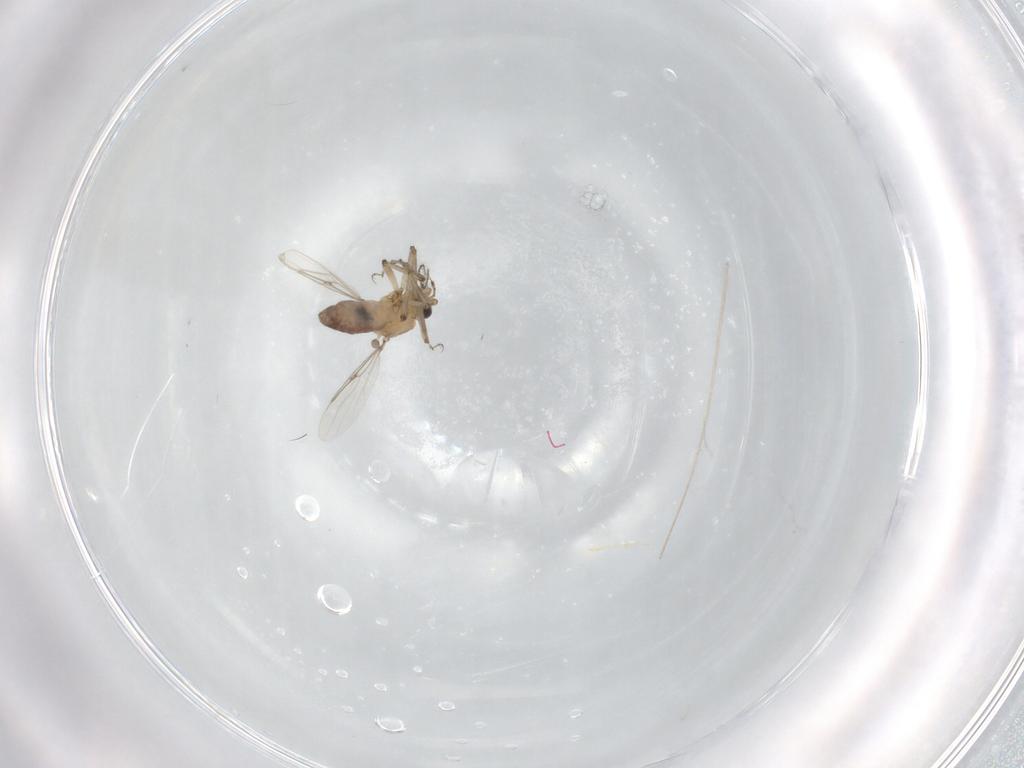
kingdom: Animalia
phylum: Arthropoda
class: Insecta
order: Diptera
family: Ceratopogonidae
